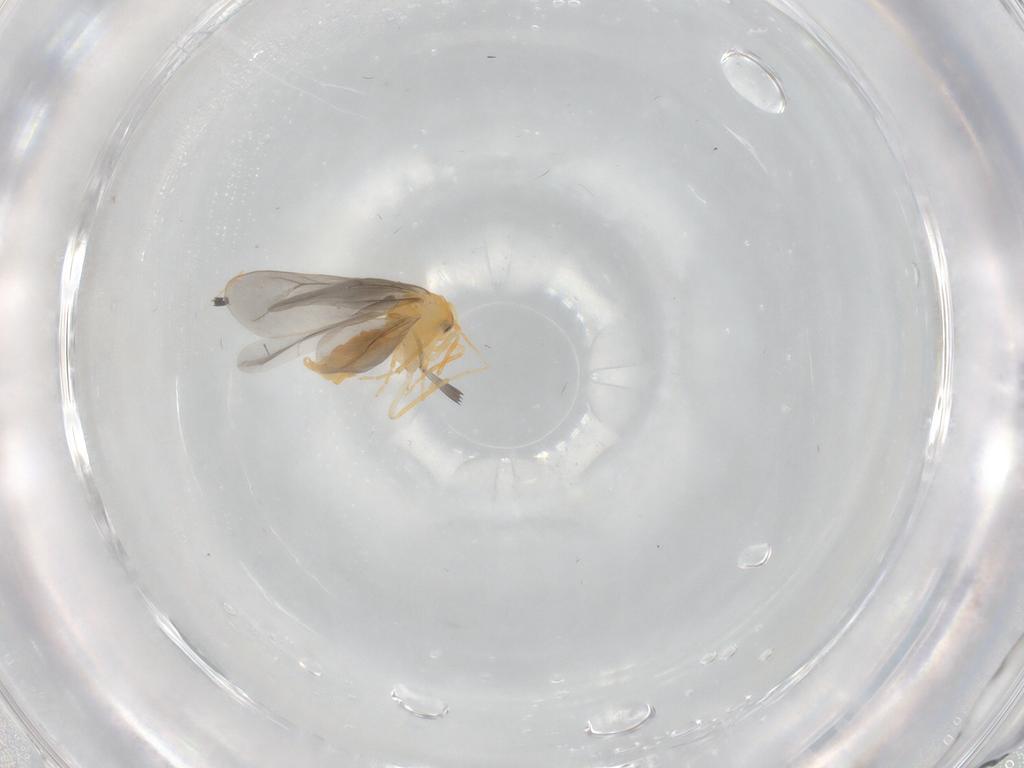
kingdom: Animalia
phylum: Arthropoda
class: Insecta
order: Hemiptera
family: Aleyrodidae
